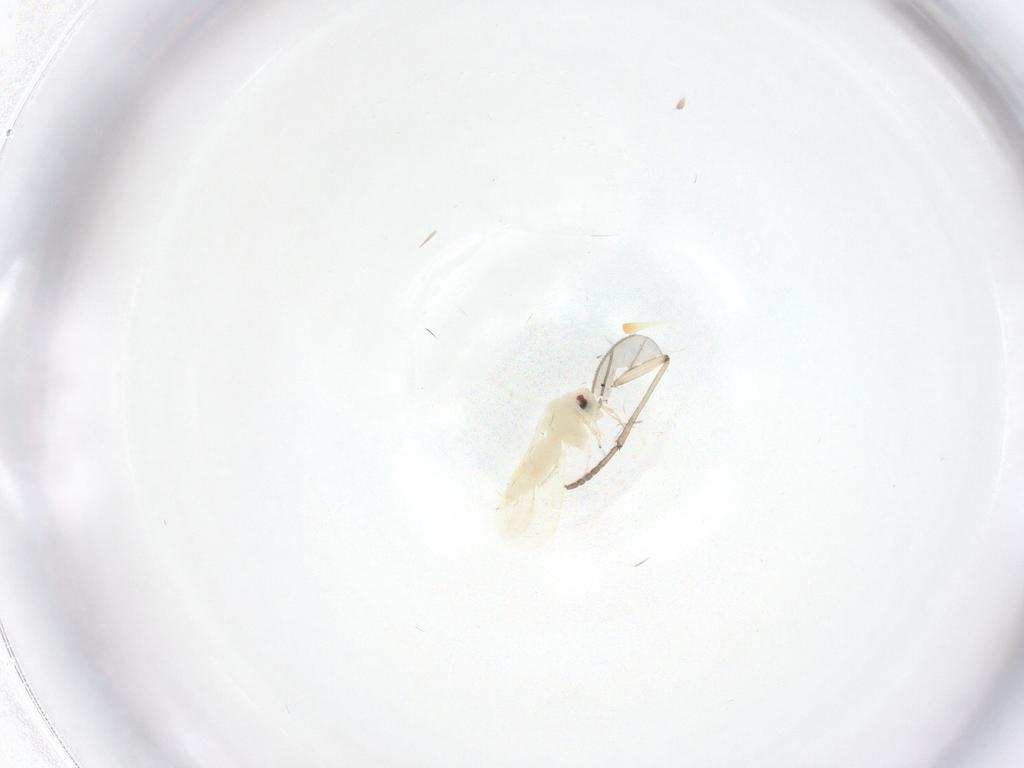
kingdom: Animalia
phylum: Arthropoda
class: Insecta
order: Hemiptera
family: Aleyrodidae
